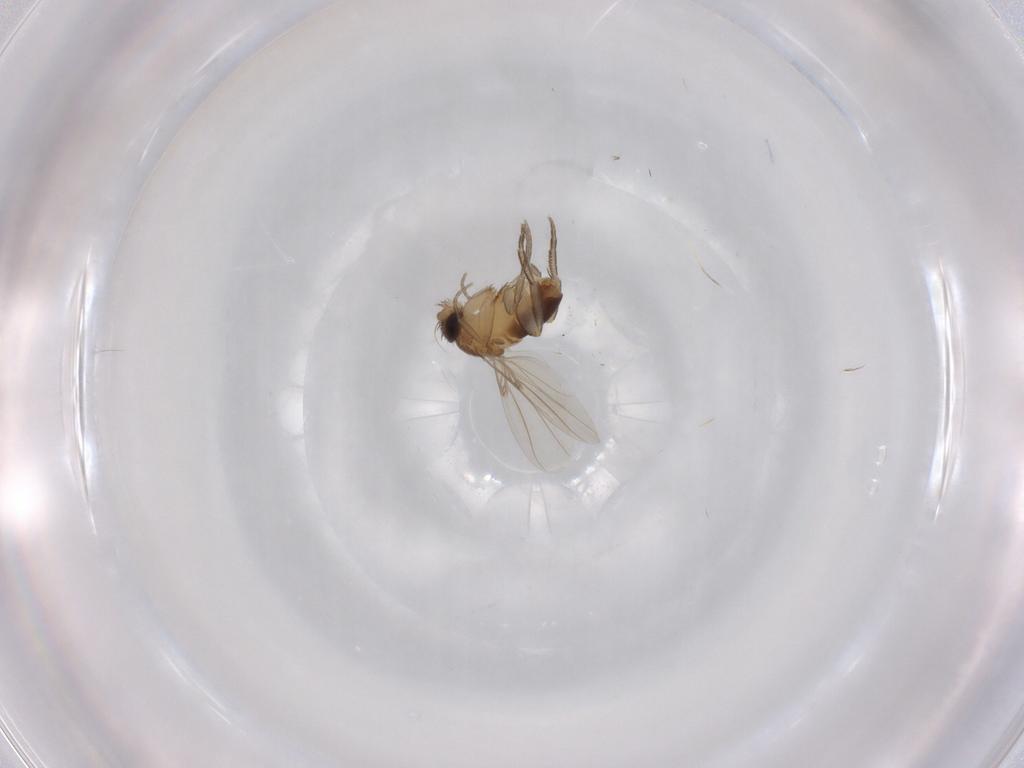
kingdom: Animalia
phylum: Arthropoda
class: Insecta
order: Diptera
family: Phoridae
